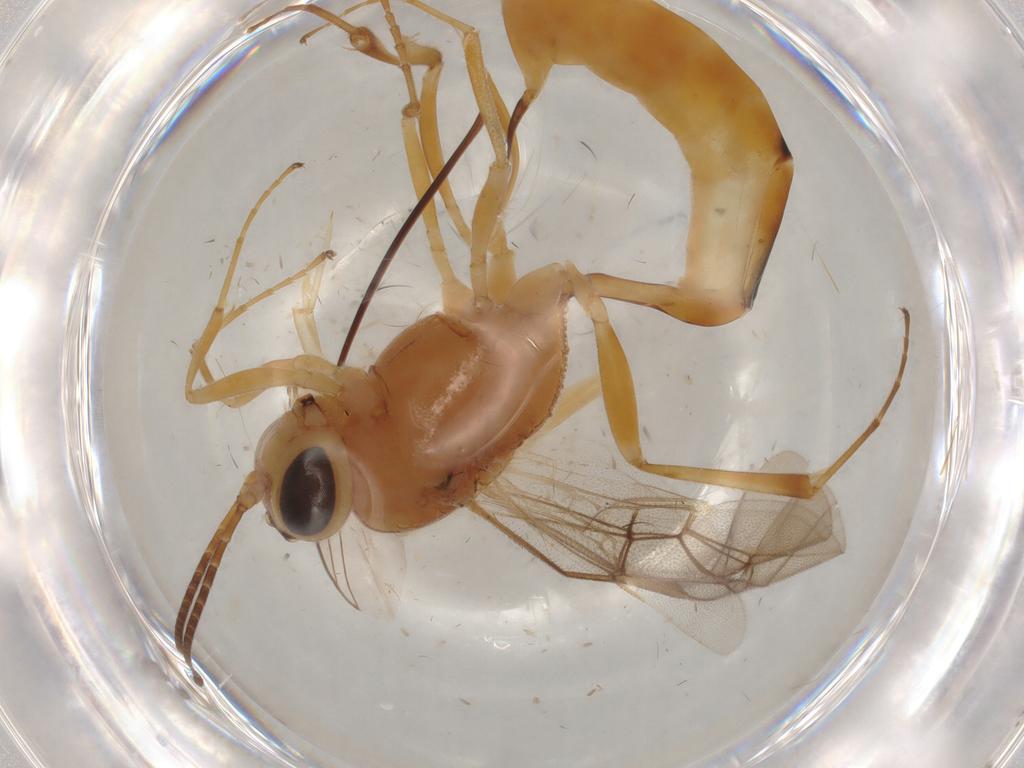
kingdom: Animalia
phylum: Arthropoda
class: Insecta
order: Hymenoptera
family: Ichneumonidae
